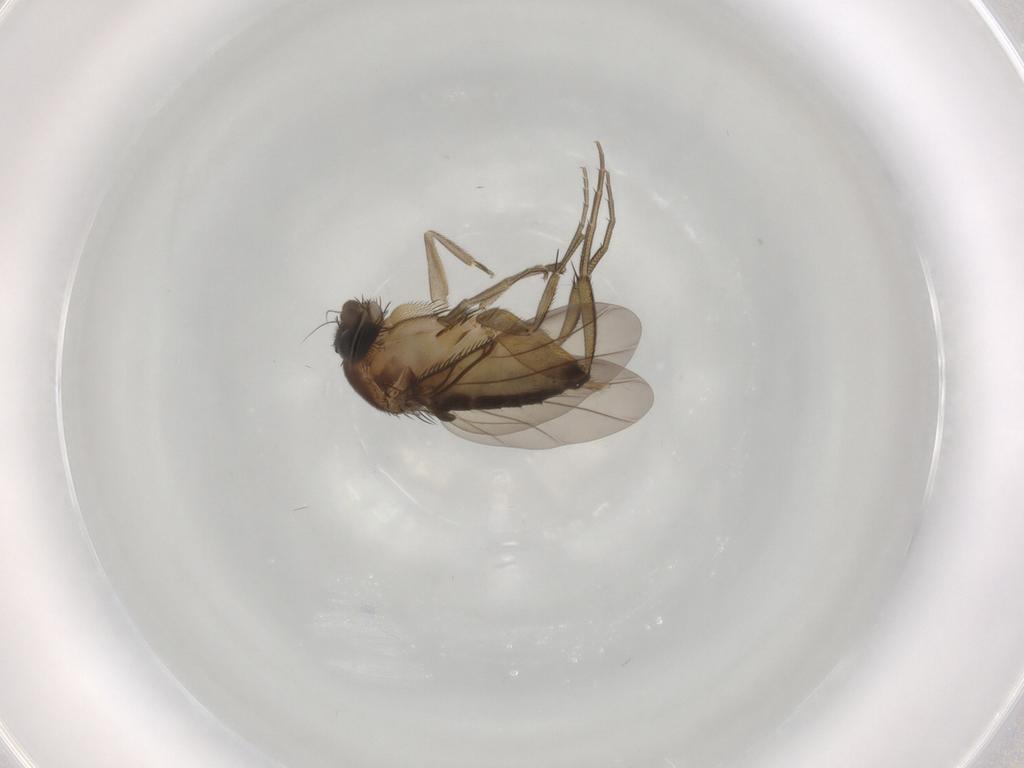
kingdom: Animalia
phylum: Arthropoda
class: Insecta
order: Diptera
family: Phoridae
